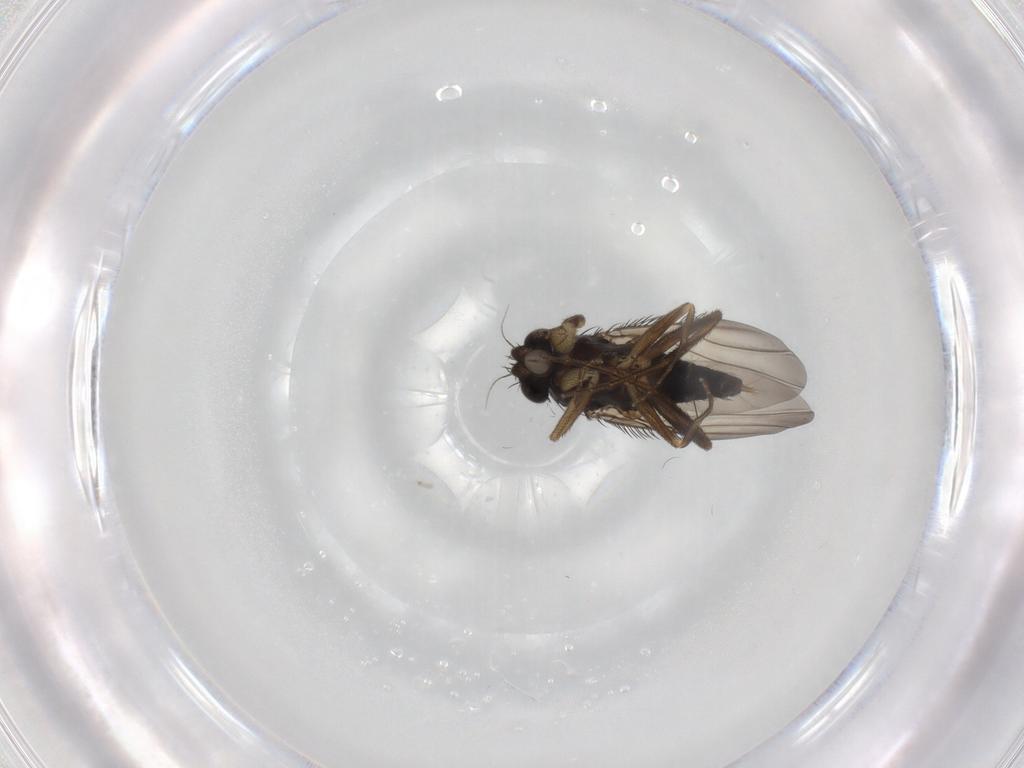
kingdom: Animalia
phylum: Arthropoda
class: Insecta
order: Diptera
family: Phoridae
